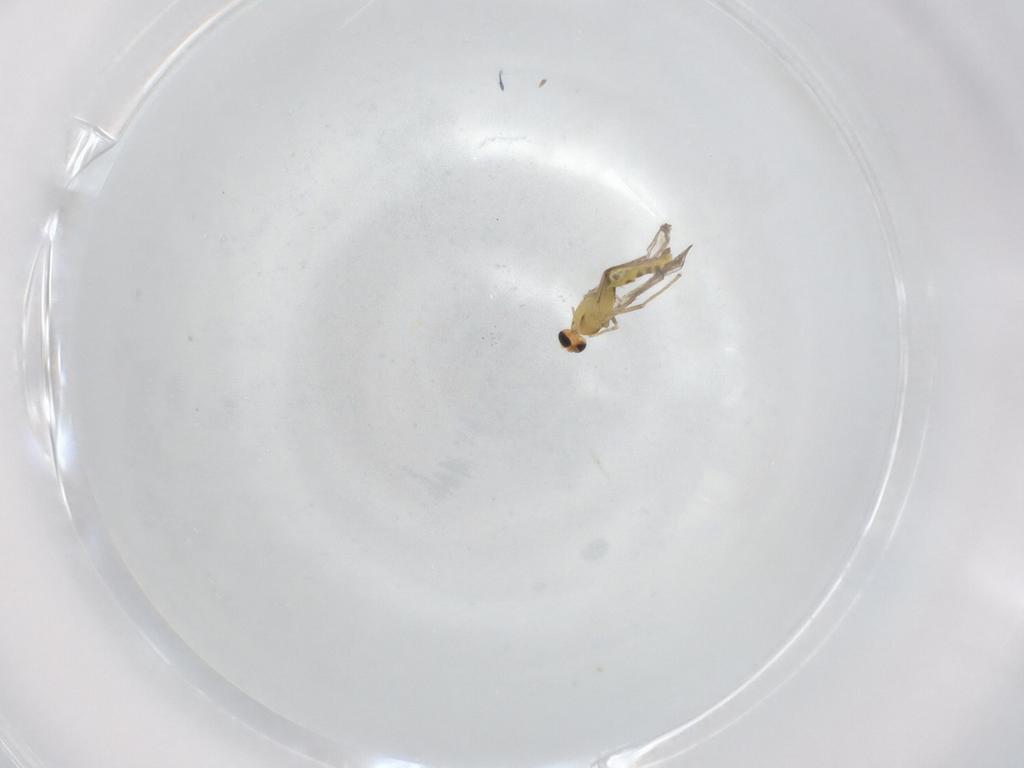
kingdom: Animalia
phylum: Arthropoda
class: Insecta
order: Diptera
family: Chironomidae
